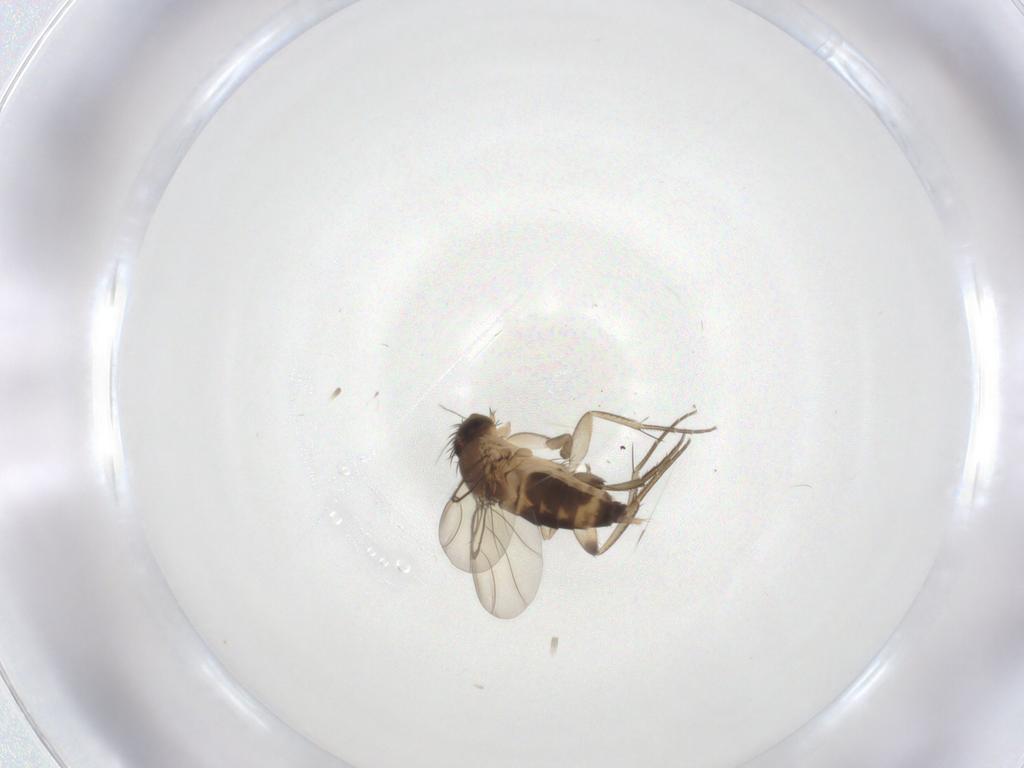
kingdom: Animalia
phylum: Arthropoda
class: Insecta
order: Diptera
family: Phoridae
